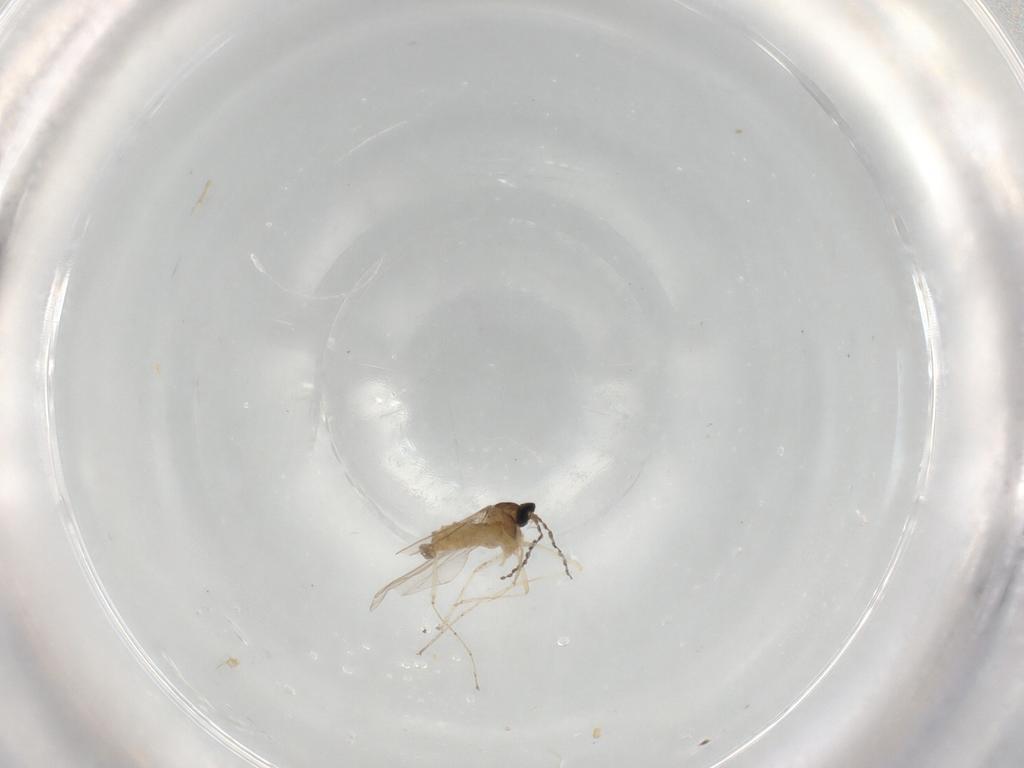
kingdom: Animalia
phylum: Arthropoda
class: Insecta
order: Diptera
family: Cecidomyiidae
